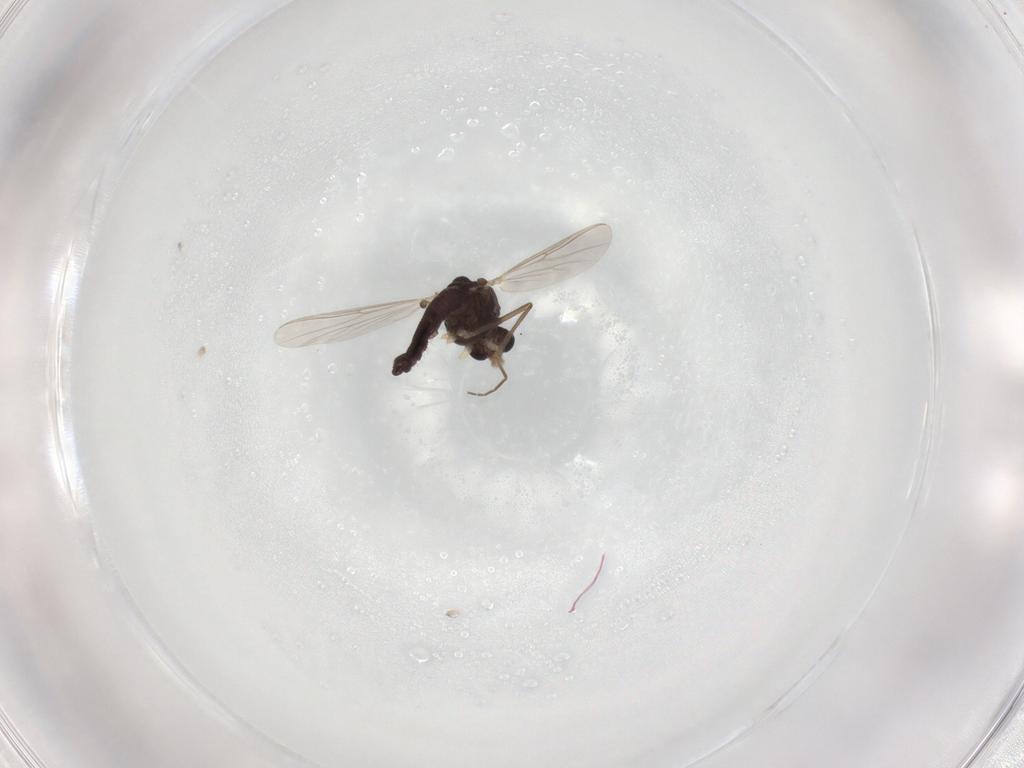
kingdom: Animalia
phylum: Arthropoda
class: Insecta
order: Diptera
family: Chironomidae
